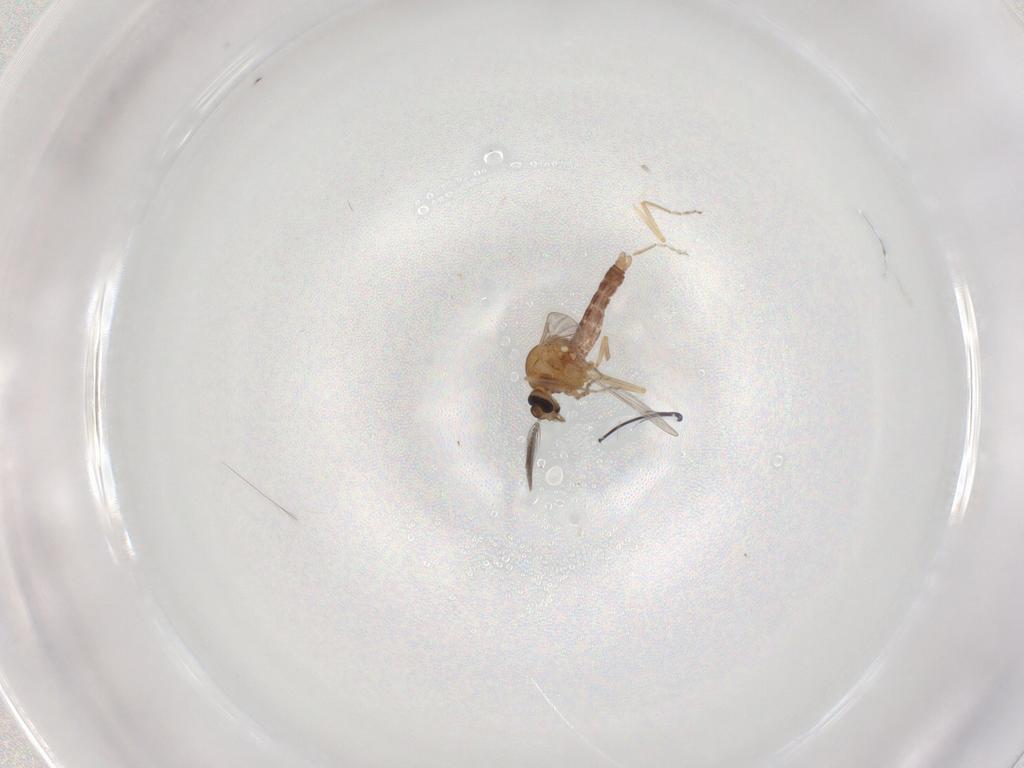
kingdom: Animalia
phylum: Arthropoda
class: Insecta
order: Diptera
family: Ceratopogonidae
